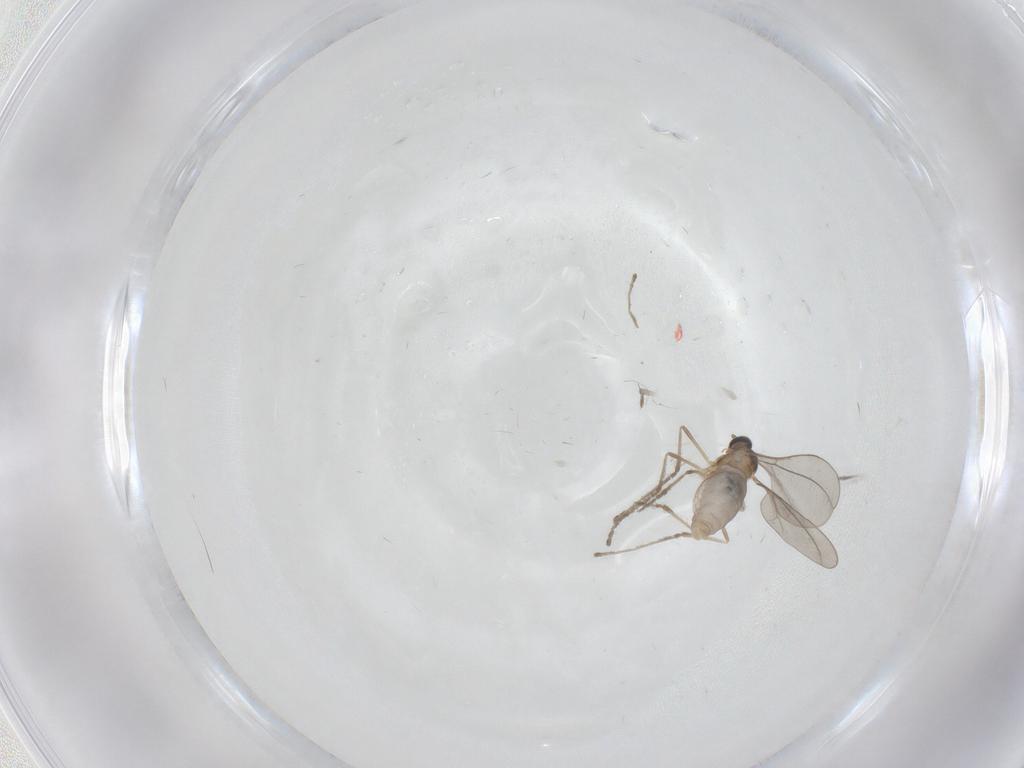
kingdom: Animalia
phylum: Arthropoda
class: Insecta
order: Diptera
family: Cecidomyiidae
